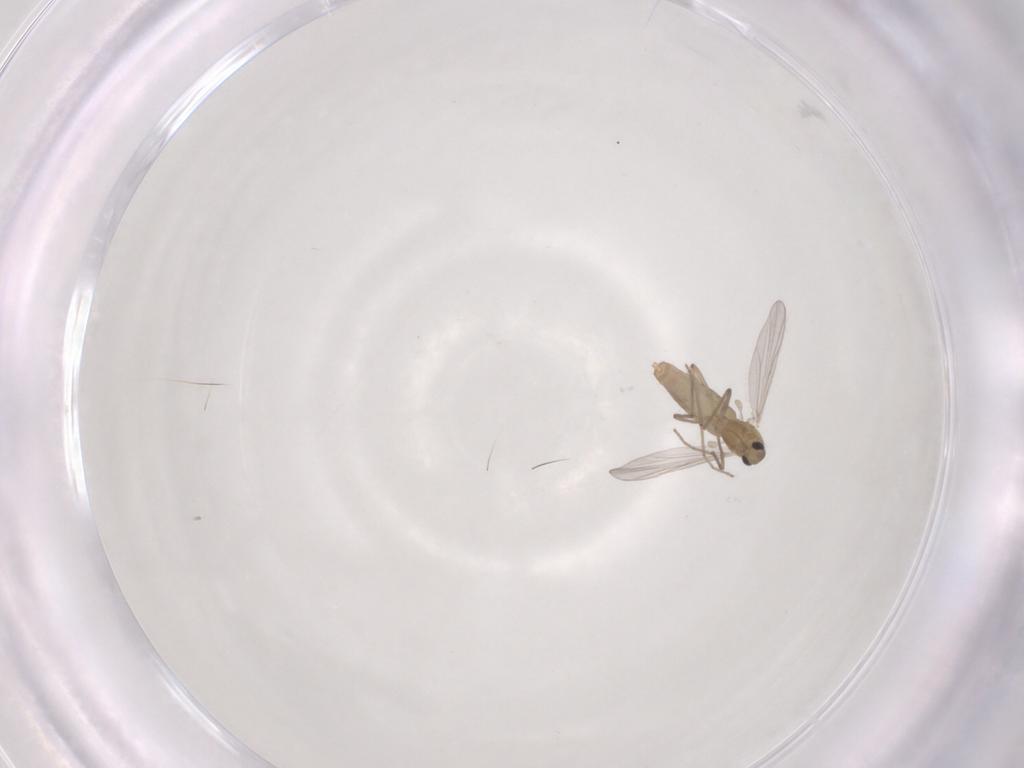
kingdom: Animalia
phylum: Arthropoda
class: Insecta
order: Diptera
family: Chironomidae
